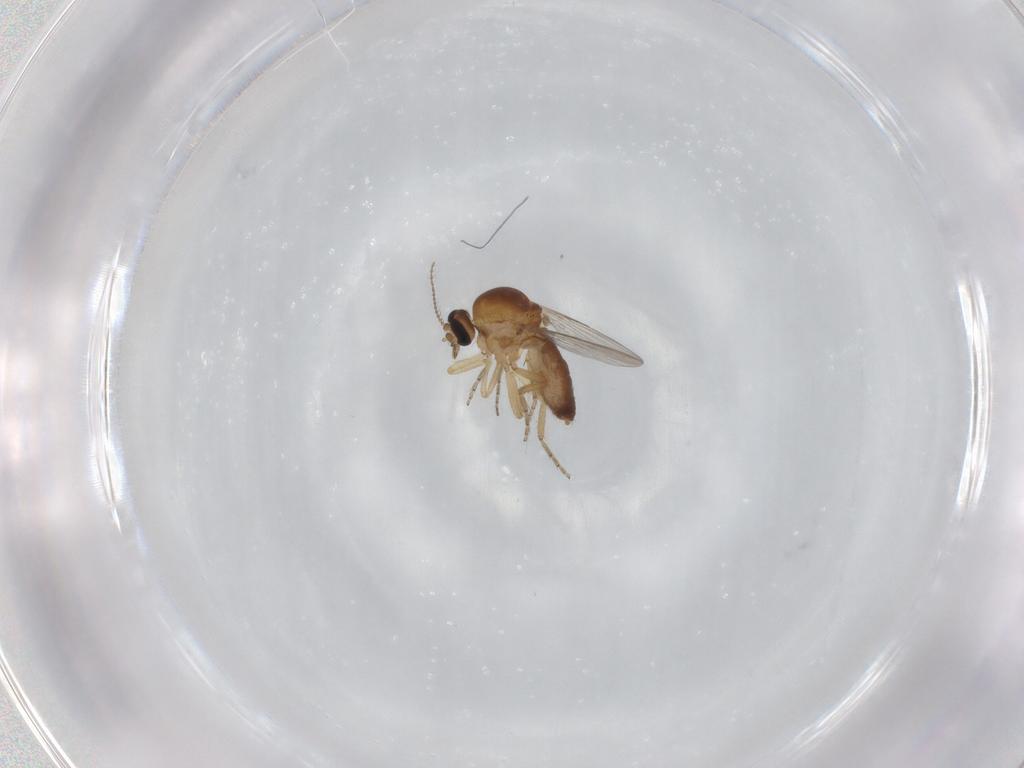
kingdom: Animalia
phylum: Arthropoda
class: Insecta
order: Diptera
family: Ceratopogonidae
